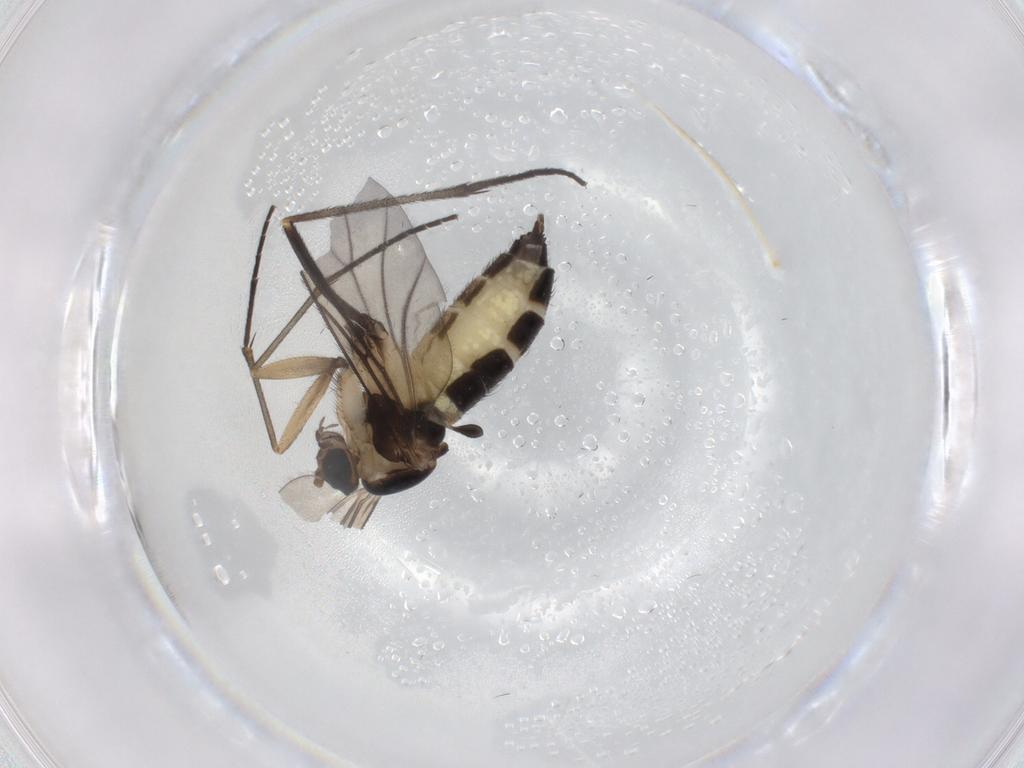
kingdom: Animalia
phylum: Arthropoda
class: Insecta
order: Diptera
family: Sciaridae
